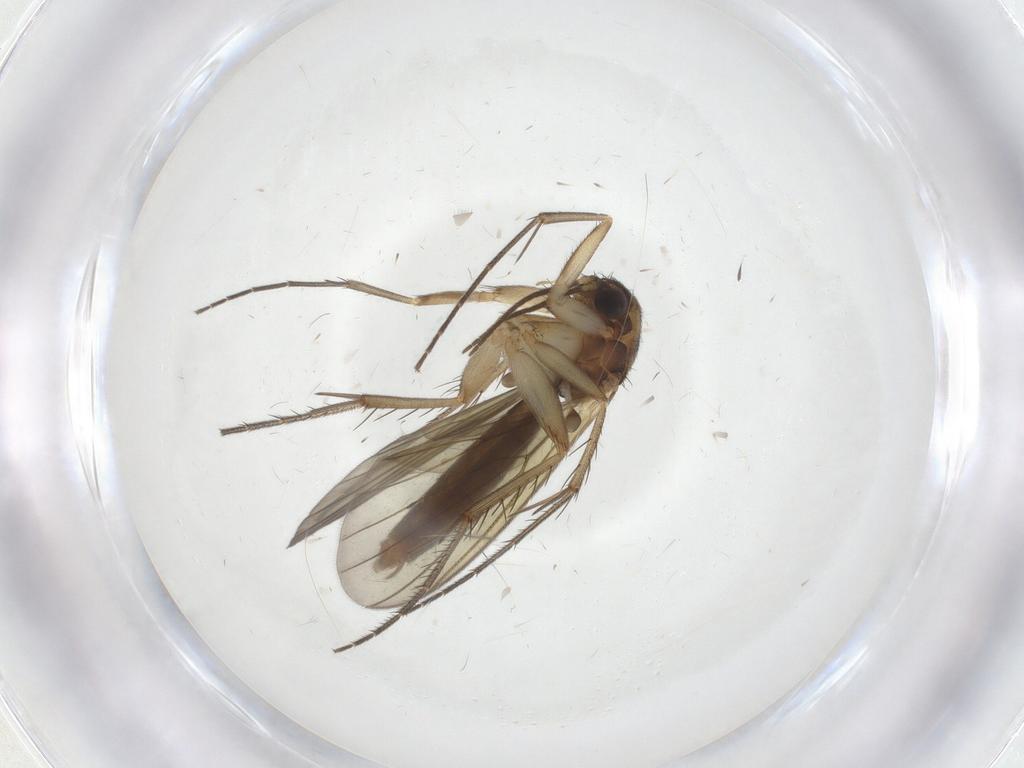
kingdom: Animalia
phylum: Arthropoda
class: Insecta
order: Diptera
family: Mycetophilidae
